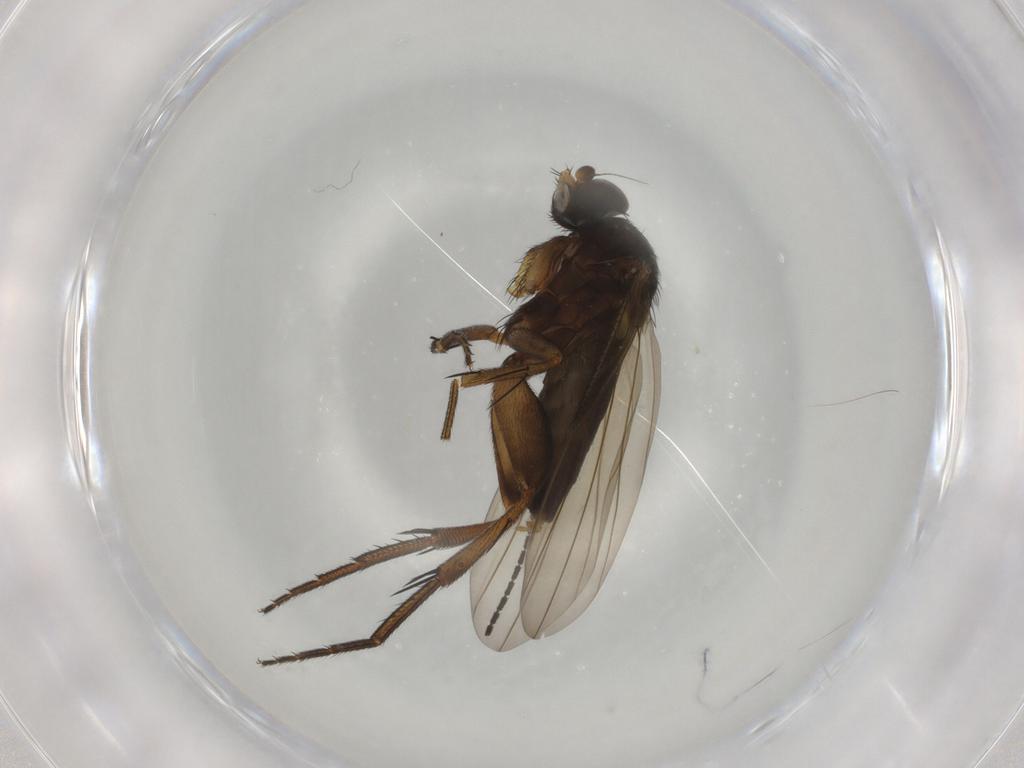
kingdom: Animalia
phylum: Arthropoda
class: Insecta
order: Diptera
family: Phoridae
